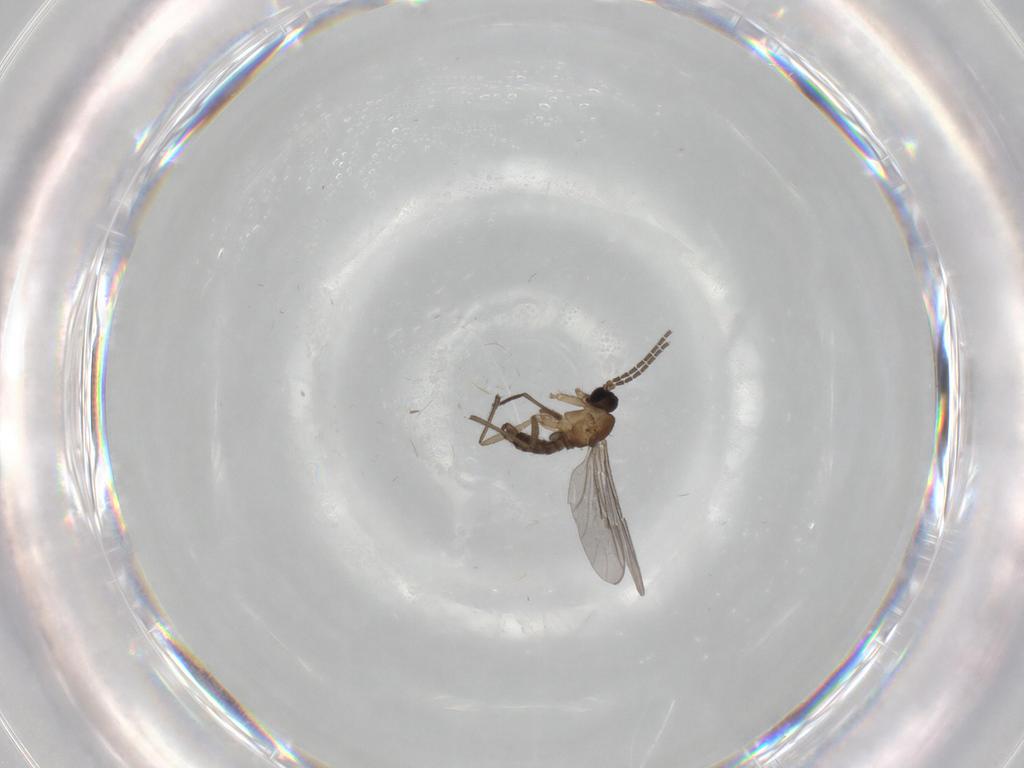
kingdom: Animalia
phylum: Arthropoda
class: Insecta
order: Diptera
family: Sciaridae
